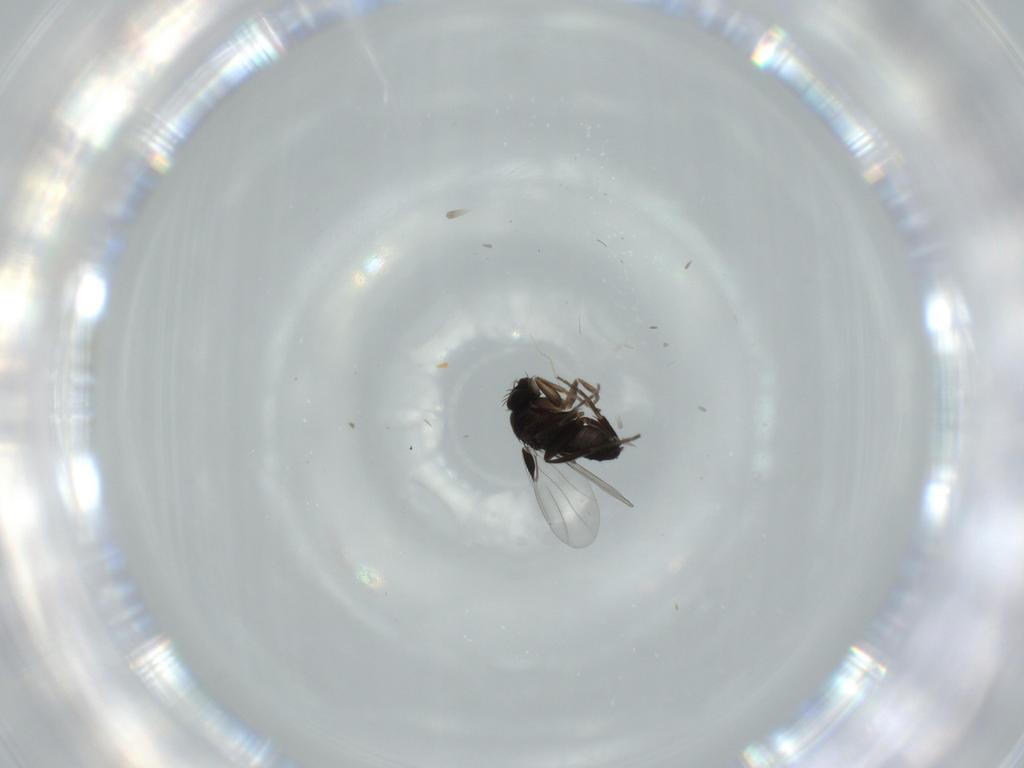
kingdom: Animalia
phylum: Arthropoda
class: Insecta
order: Diptera
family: Phoridae
